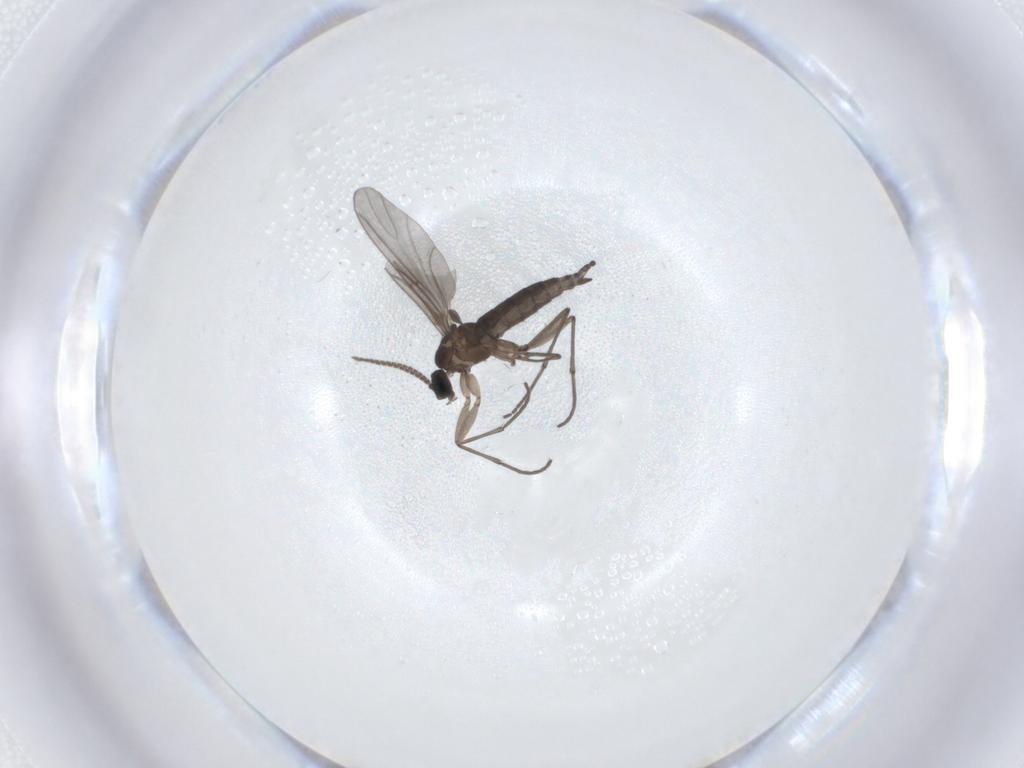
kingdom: Animalia
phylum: Arthropoda
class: Insecta
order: Diptera
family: Sciaridae
